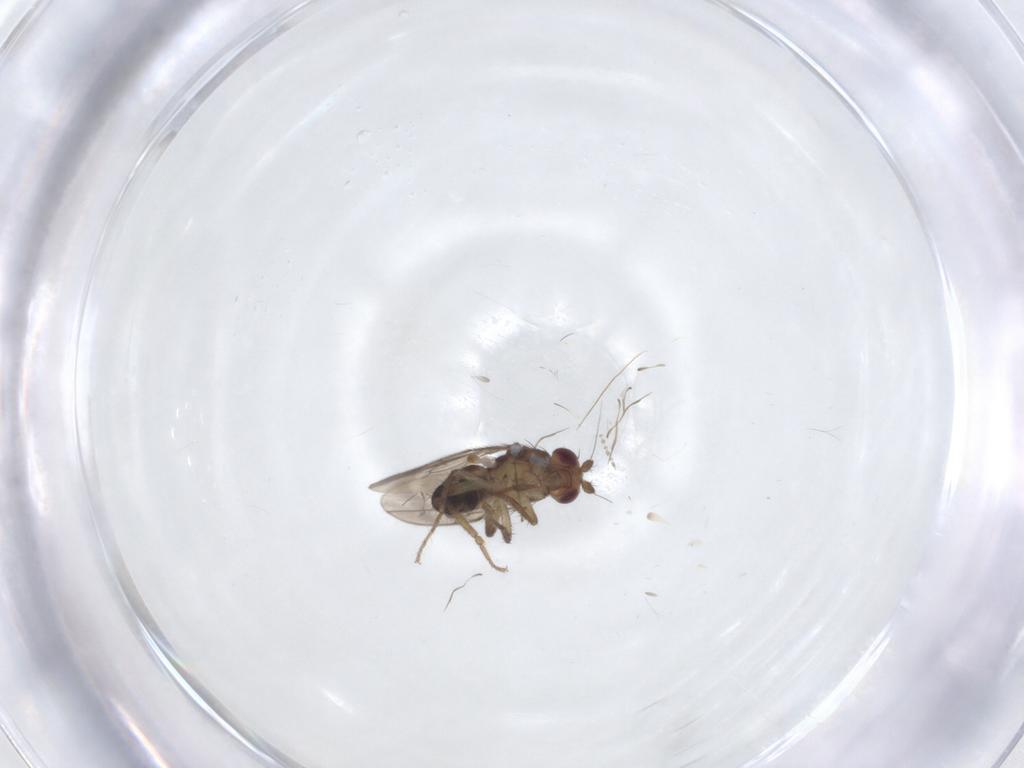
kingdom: Animalia
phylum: Arthropoda
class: Insecta
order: Diptera
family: Sphaeroceridae
